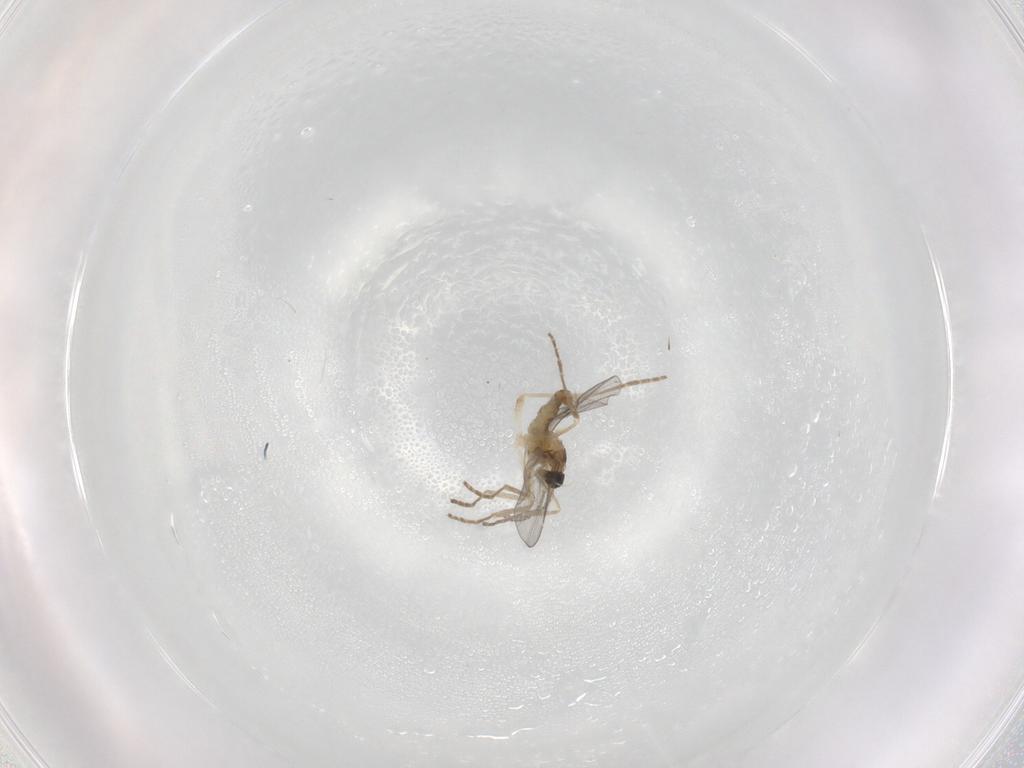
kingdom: Animalia
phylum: Arthropoda
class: Insecta
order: Diptera
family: Cecidomyiidae
